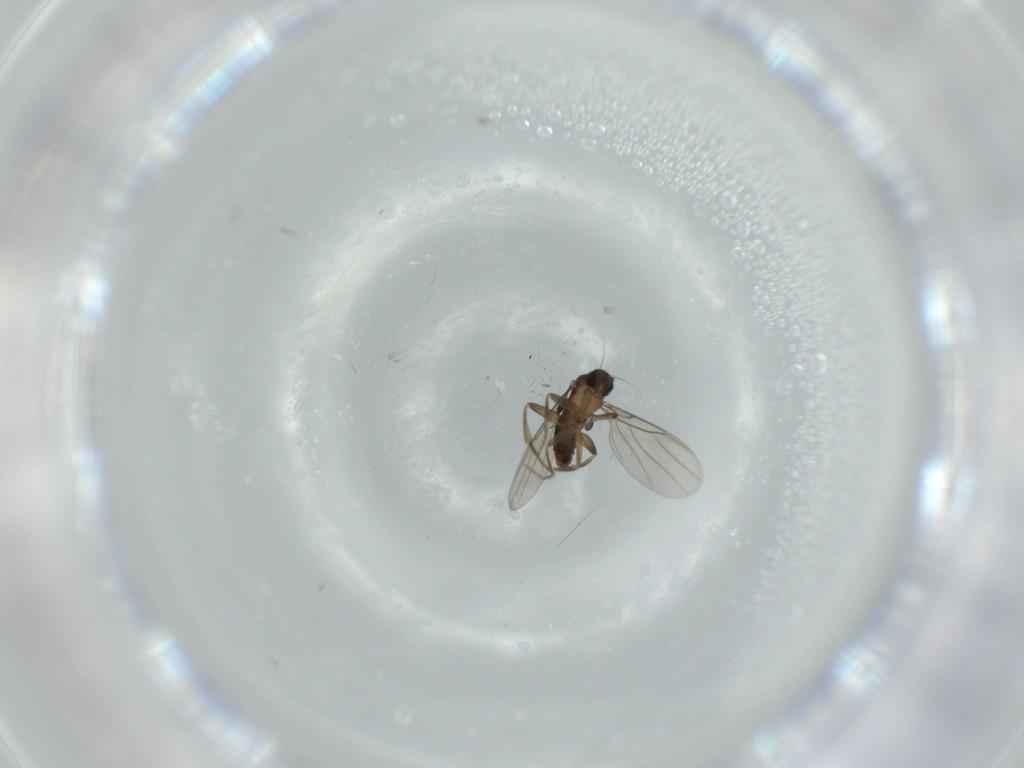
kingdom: Animalia
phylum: Arthropoda
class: Insecta
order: Diptera
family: Phoridae
